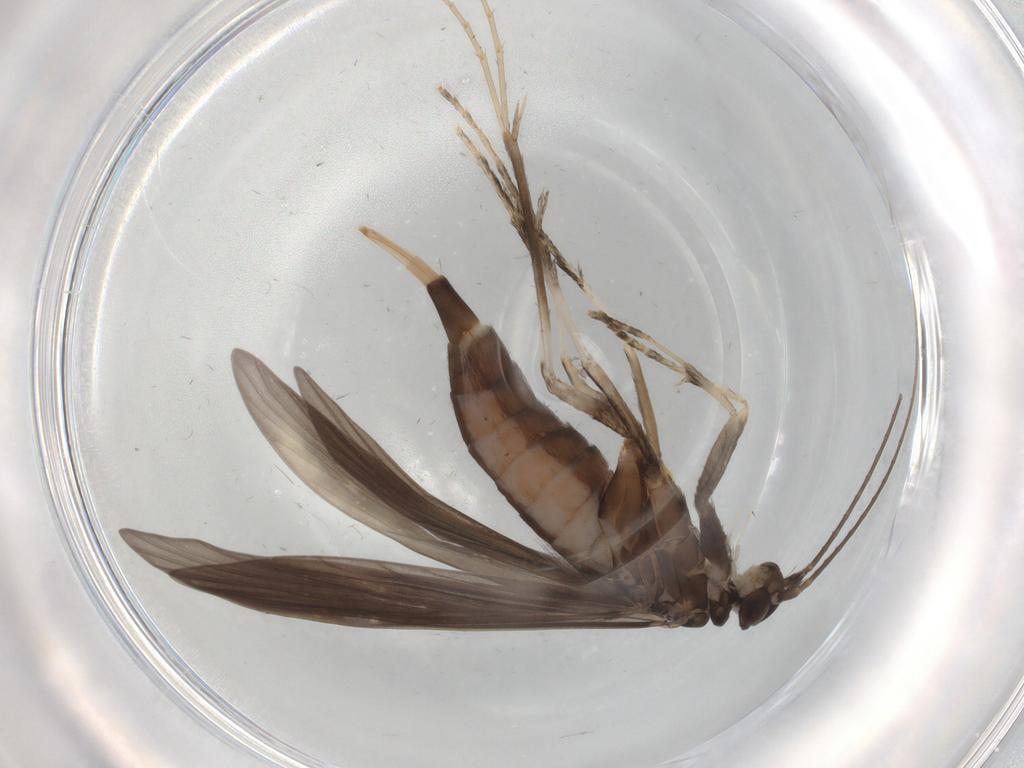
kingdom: Animalia
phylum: Arthropoda
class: Insecta
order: Trichoptera
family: Xiphocentronidae
